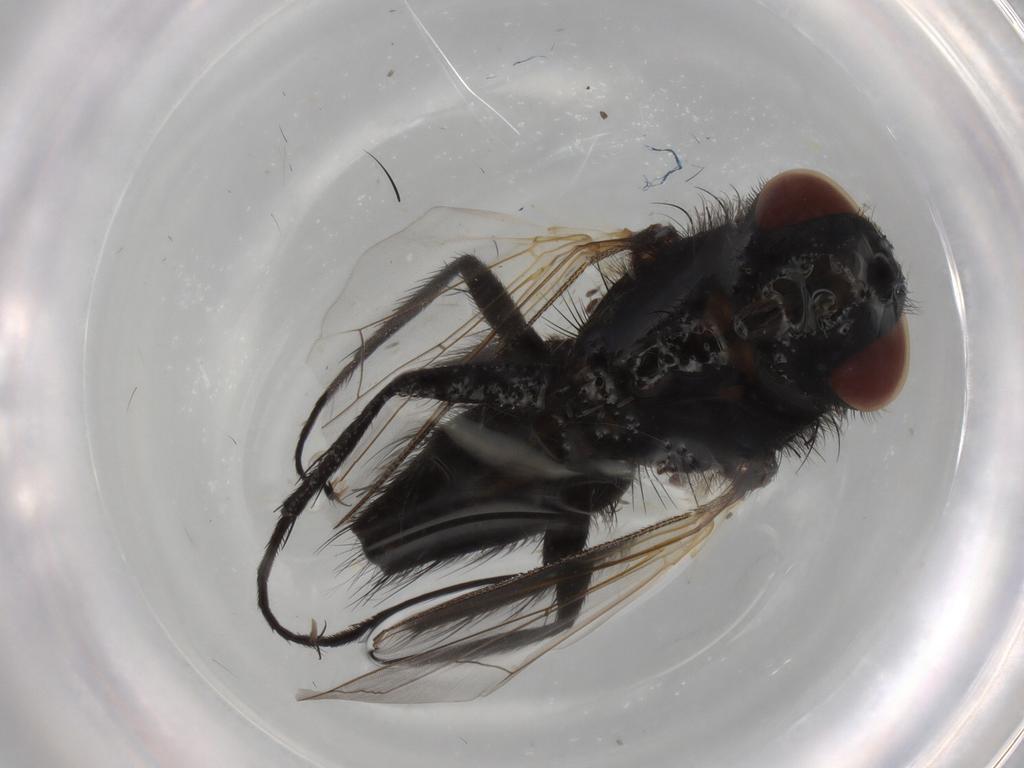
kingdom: Animalia
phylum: Arthropoda
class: Insecta
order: Diptera
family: Tachinidae
